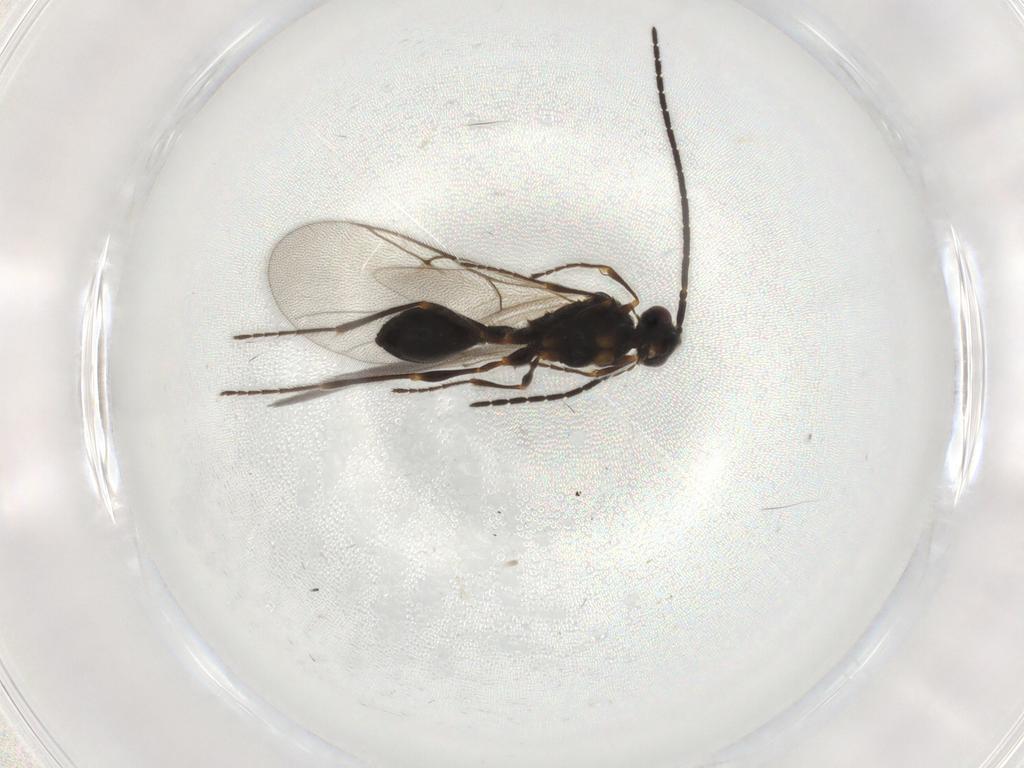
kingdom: Animalia
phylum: Arthropoda
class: Insecta
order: Hymenoptera
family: Diapriidae
